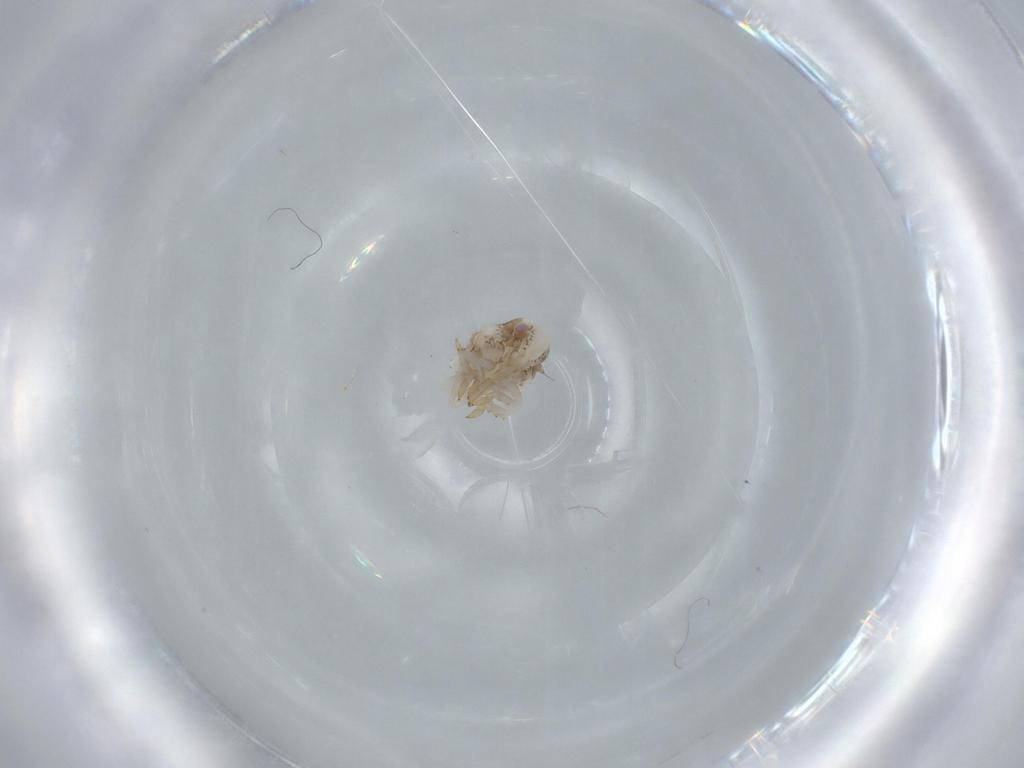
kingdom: Animalia
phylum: Arthropoda
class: Insecta
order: Hemiptera
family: Acanaloniidae
